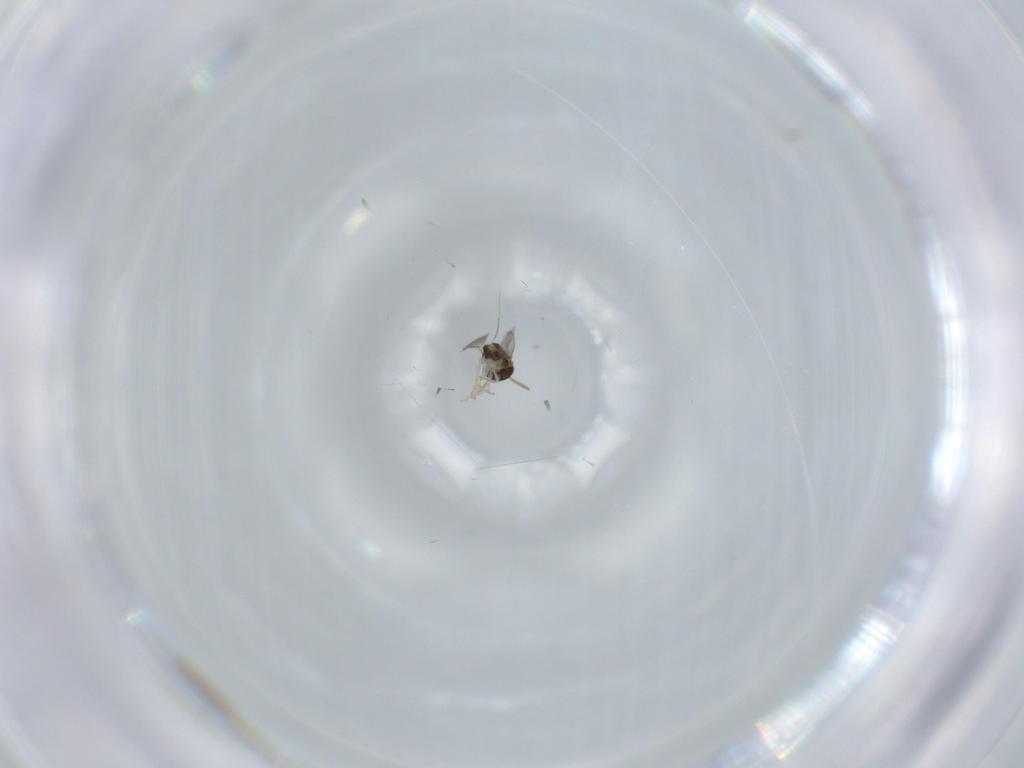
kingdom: Animalia
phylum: Arthropoda
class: Insecta
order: Hymenoptera
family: Aphelinidae
